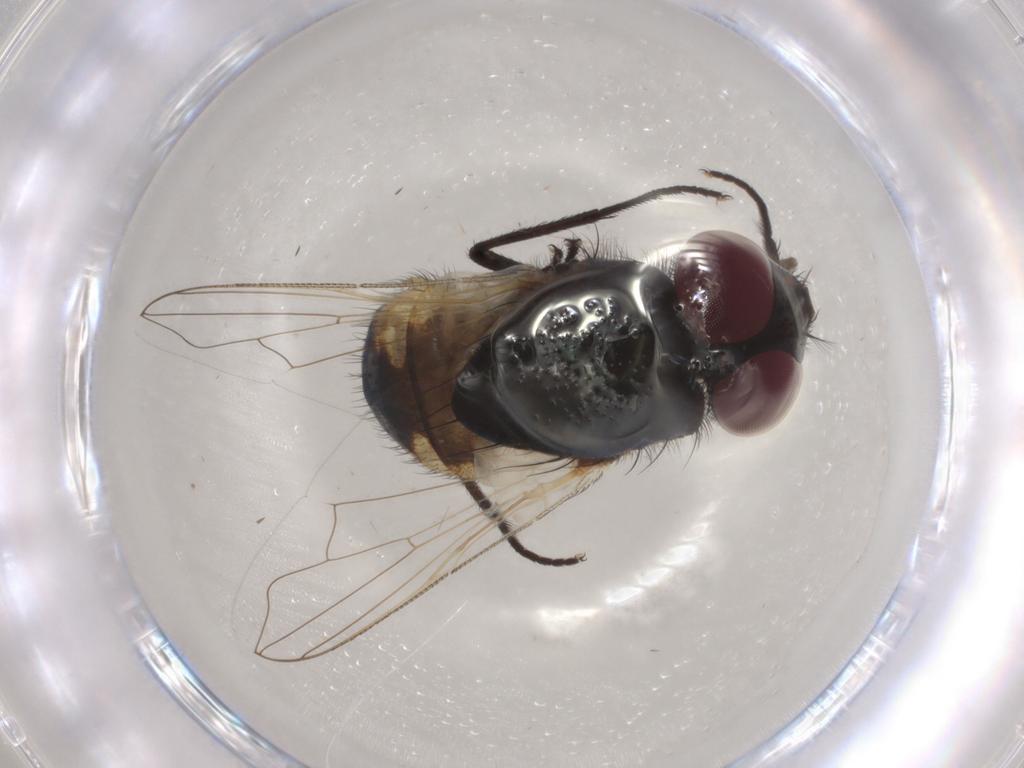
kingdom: Animalia
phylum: Arthropoda
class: Insecta
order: Diptera
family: Muscidae
